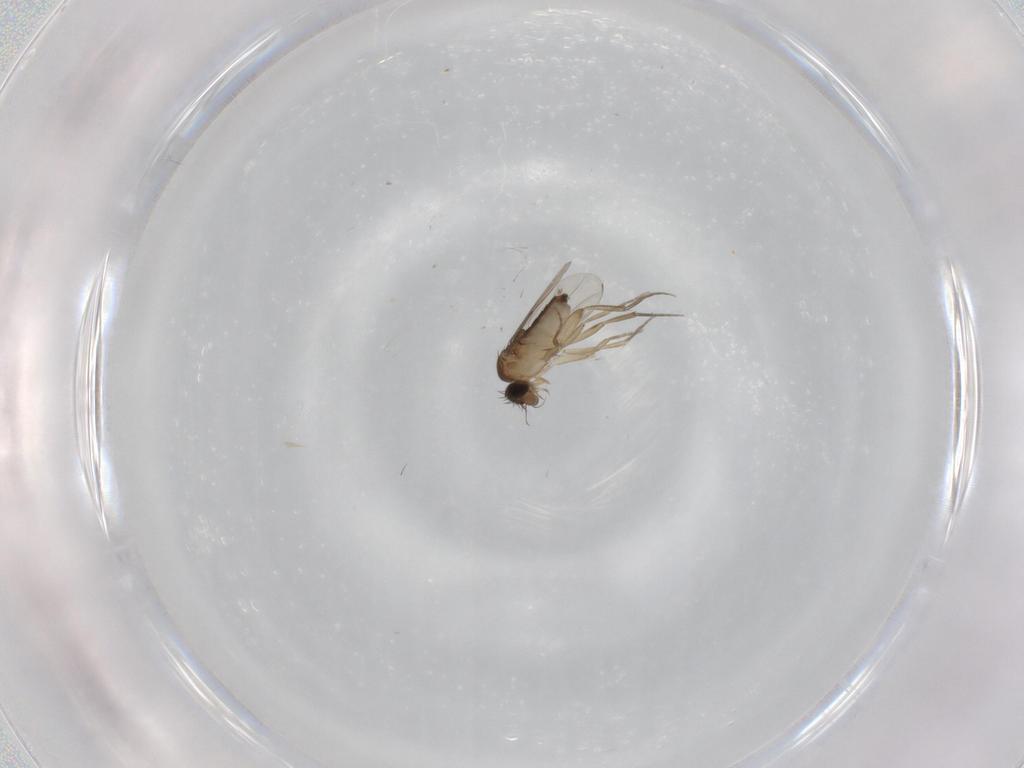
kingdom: Animalia
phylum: Arthropoda
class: Insecta
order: Diptera
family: Phoridae
